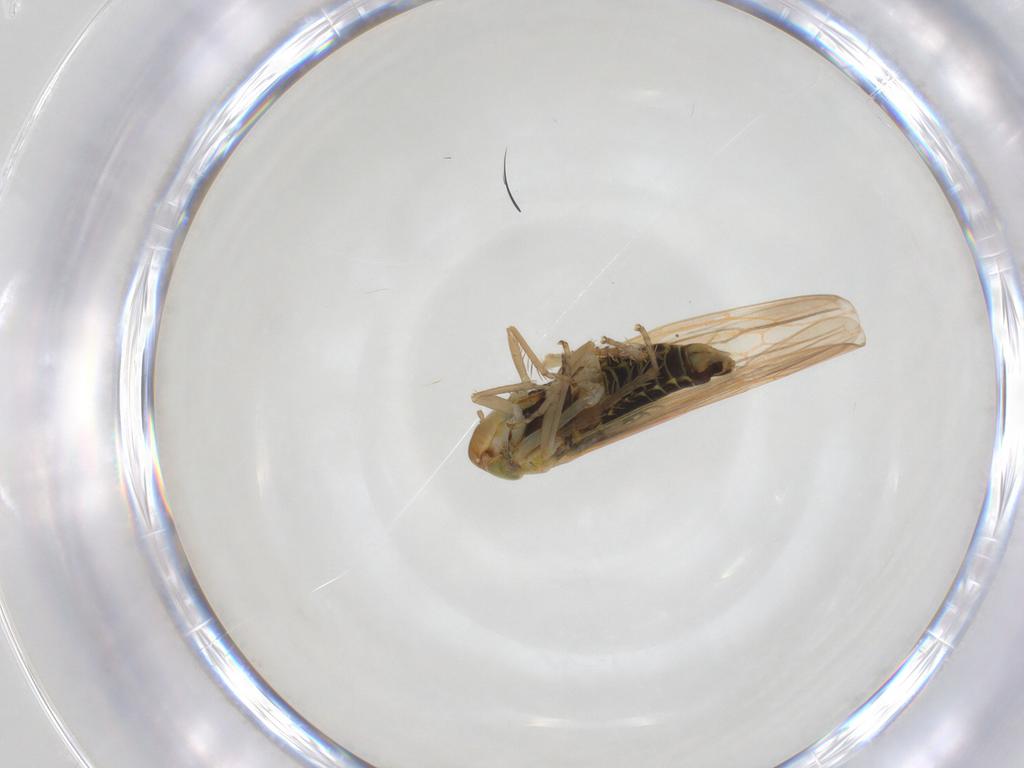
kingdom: Animalia
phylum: Arthropoda
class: Insecta
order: Hemiptera
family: Cicadellidae
